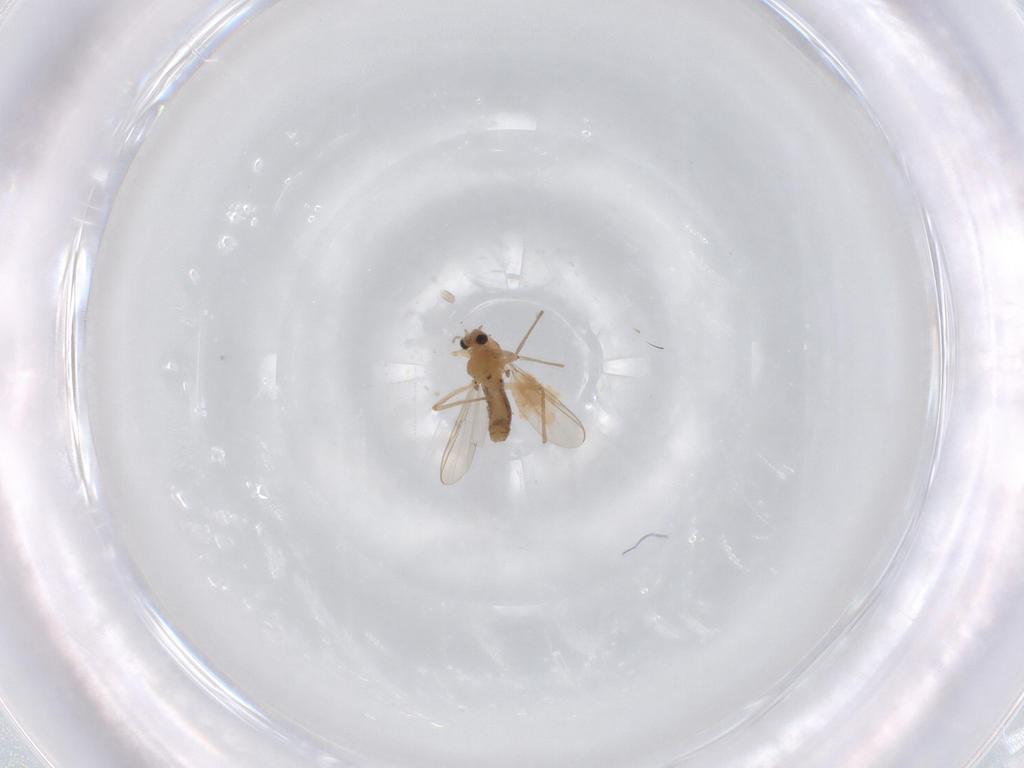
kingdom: Animalia
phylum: Arthropoda
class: Insecta
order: Diptera
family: Chironomidae
